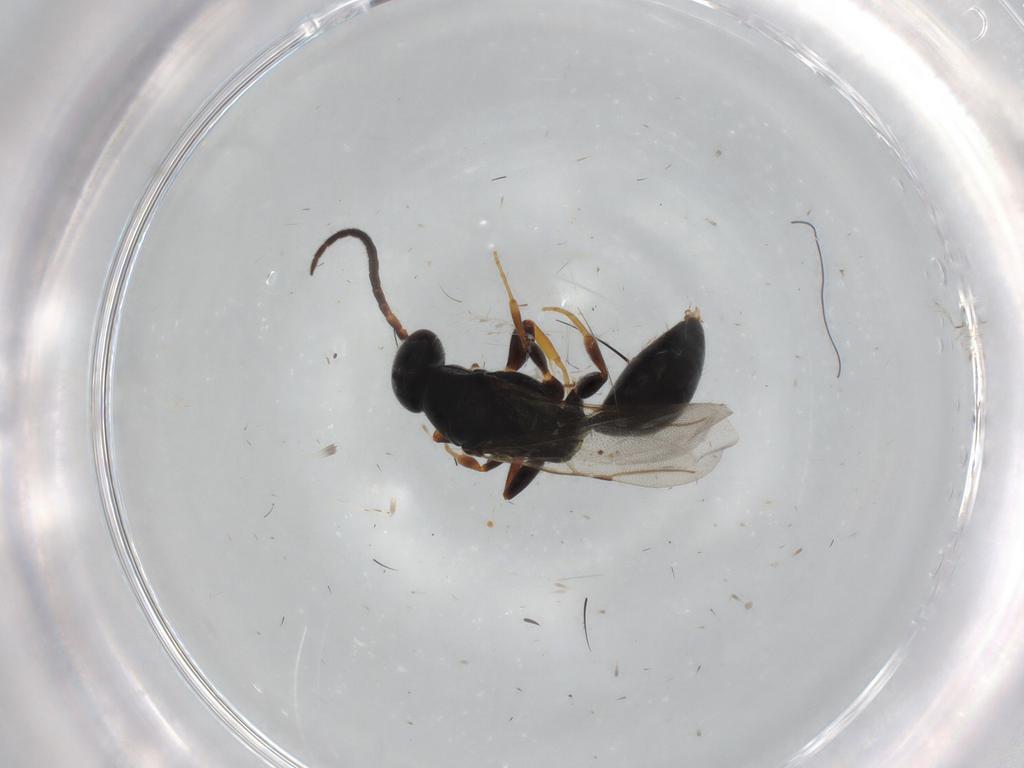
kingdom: Animalia
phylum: Arthropoda
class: Insecta
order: Hymenoptera
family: Bethylidae
